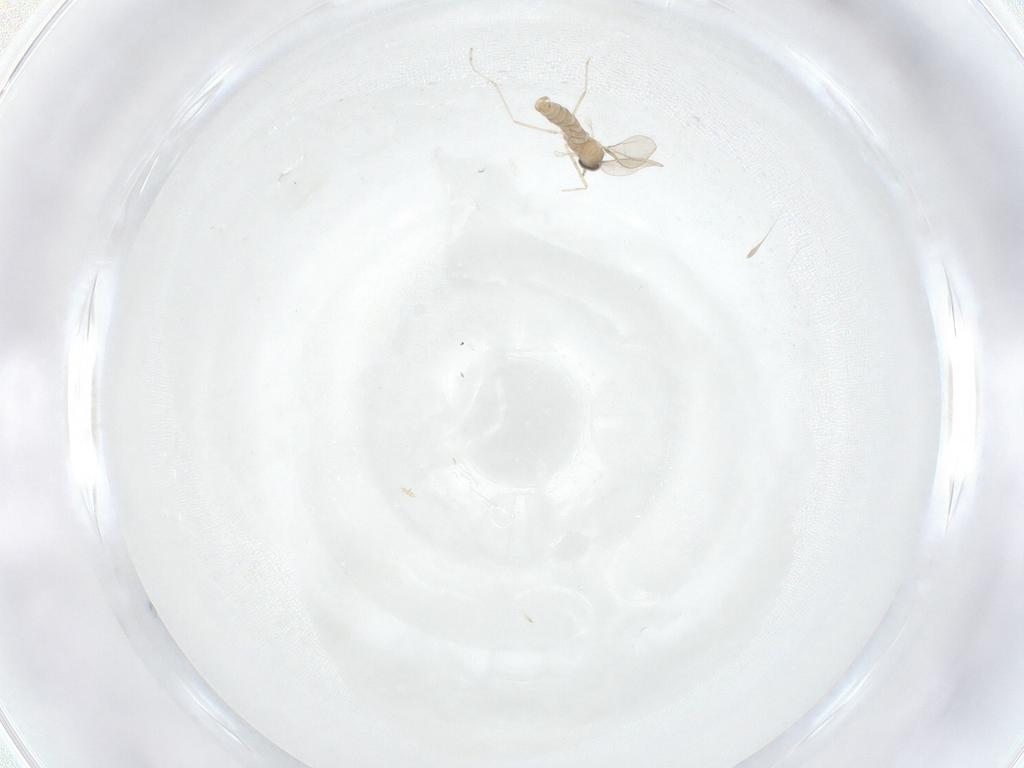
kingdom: Animalia
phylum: Arthropoda
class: Insecta
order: Diptera
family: Cecidomyiidae
